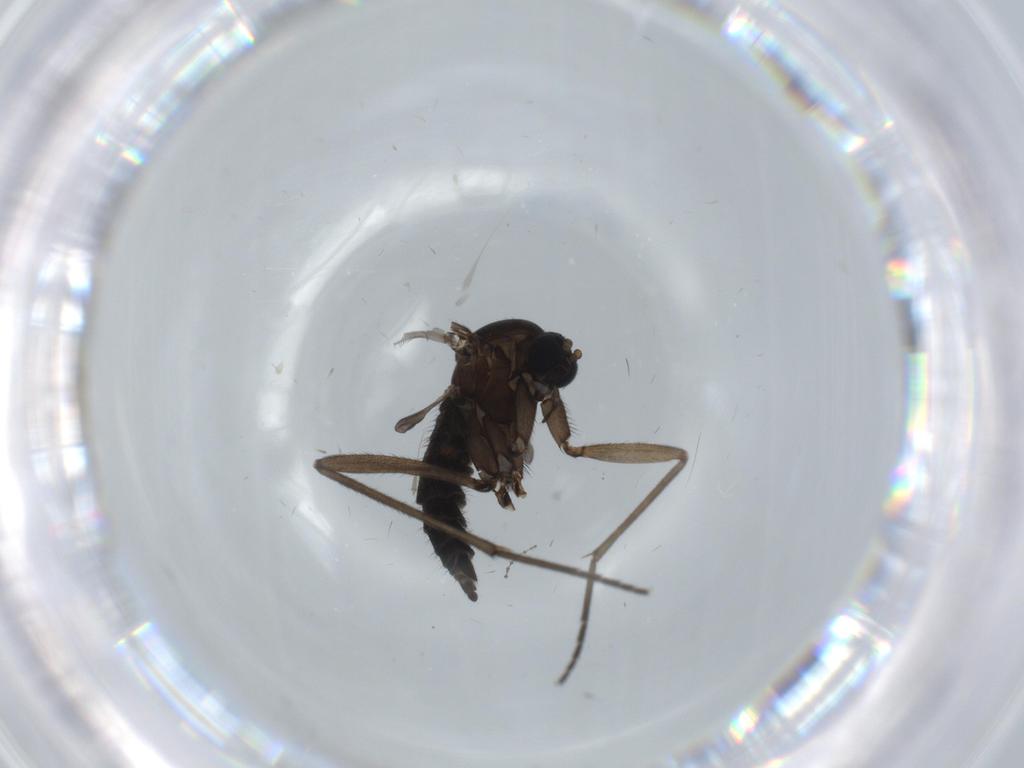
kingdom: Animalia
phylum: Arthropoda
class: Insecta
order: Diptera
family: Sciaridae
